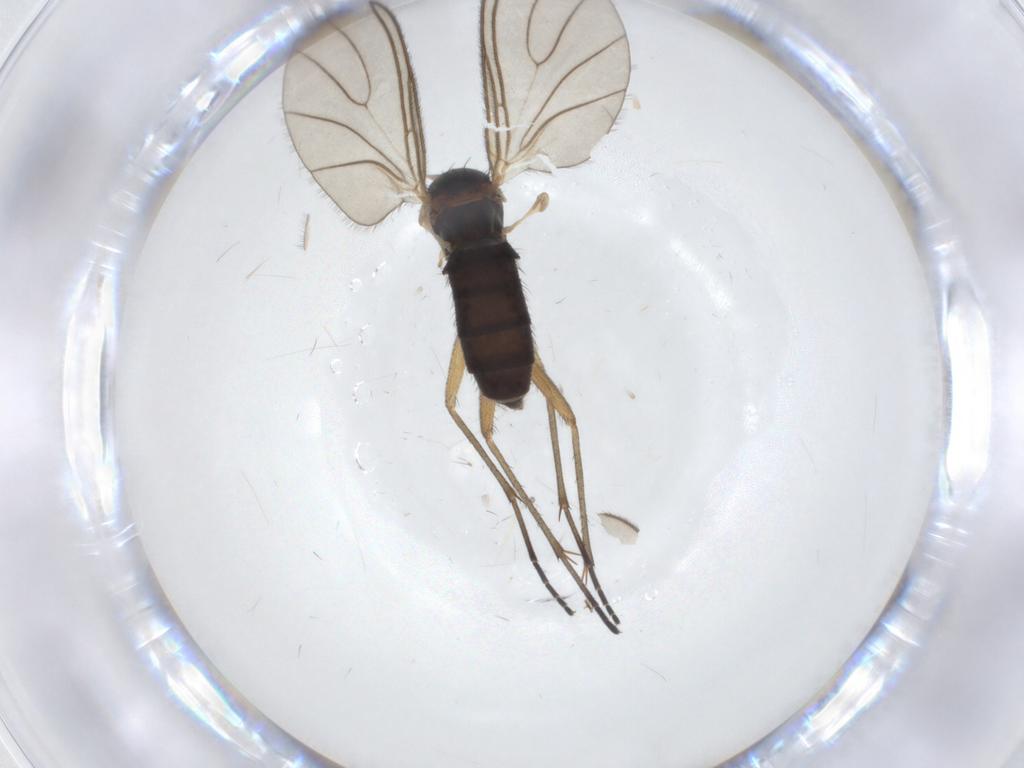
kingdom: Animalia
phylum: Arthropoda
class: Insecta
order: Diptera
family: Sciaridae
